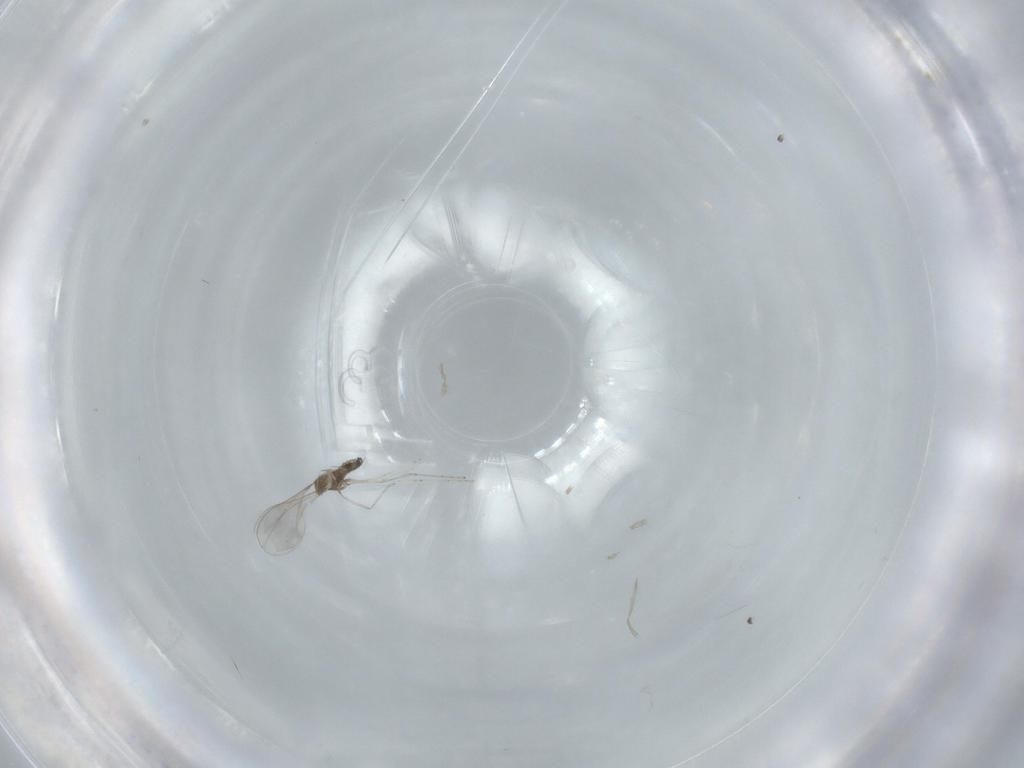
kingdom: Animalia
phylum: Arthropoda
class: Insecta
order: Diptera
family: Cecidomyiidae
